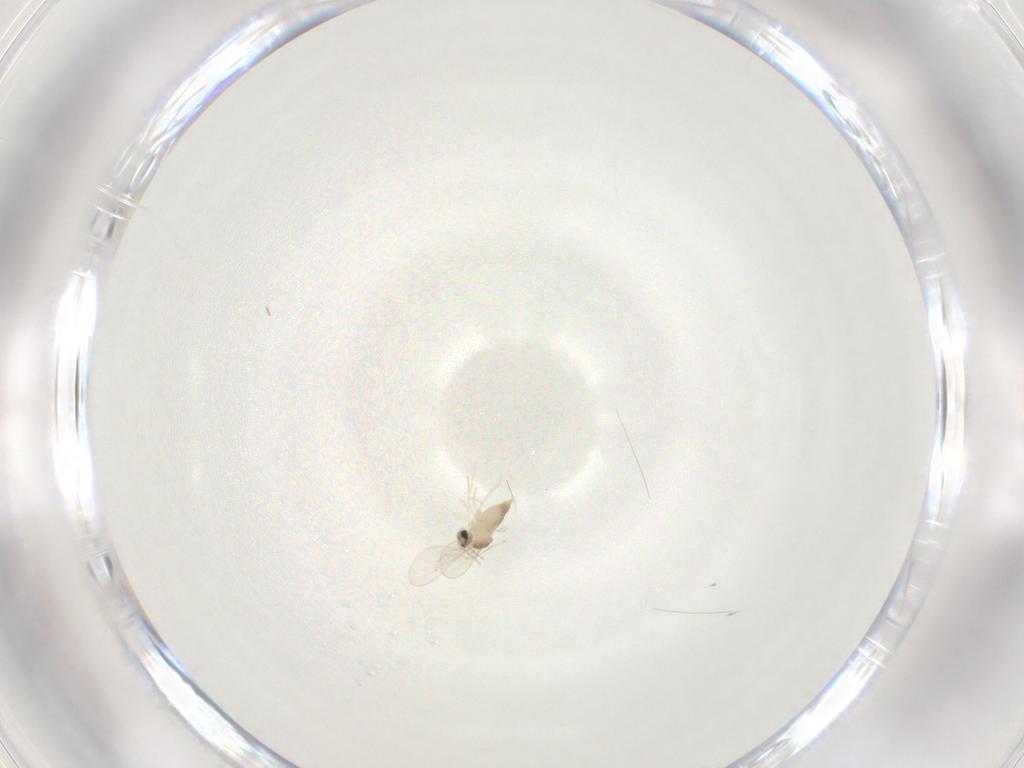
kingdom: Animalia
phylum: Arthropoda
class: Insecta
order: Diptera
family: Cecidomyiidae
